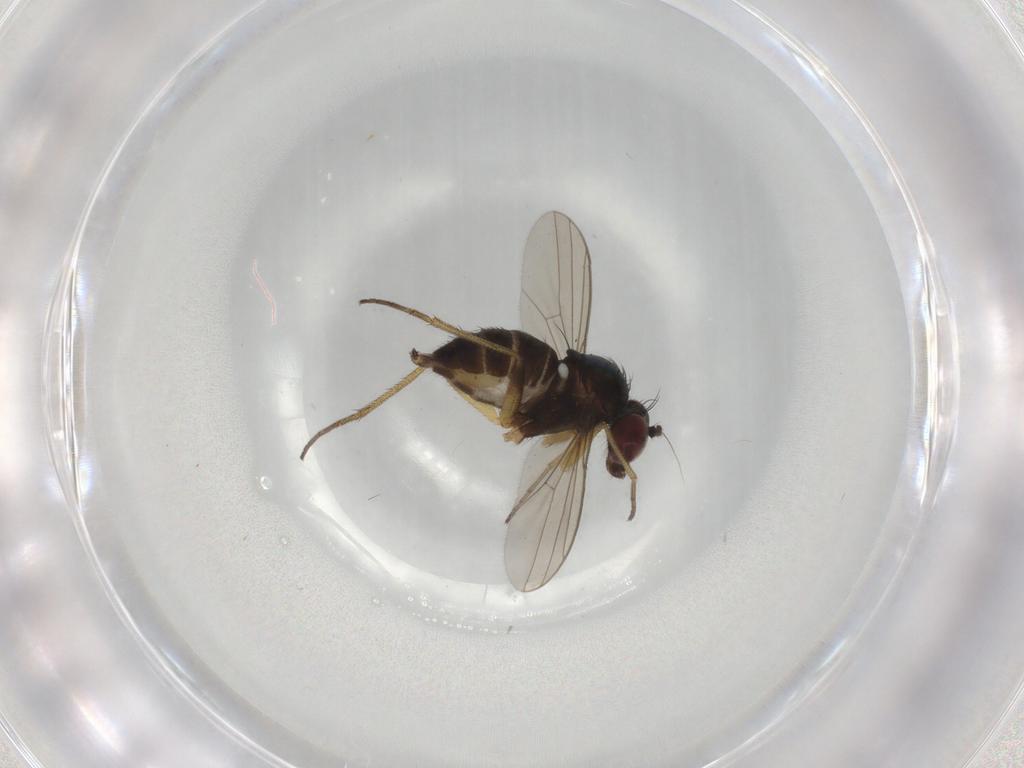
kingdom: Animalia
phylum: Arthropoda
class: Insecta
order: Diptera
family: Dolichopodidae
